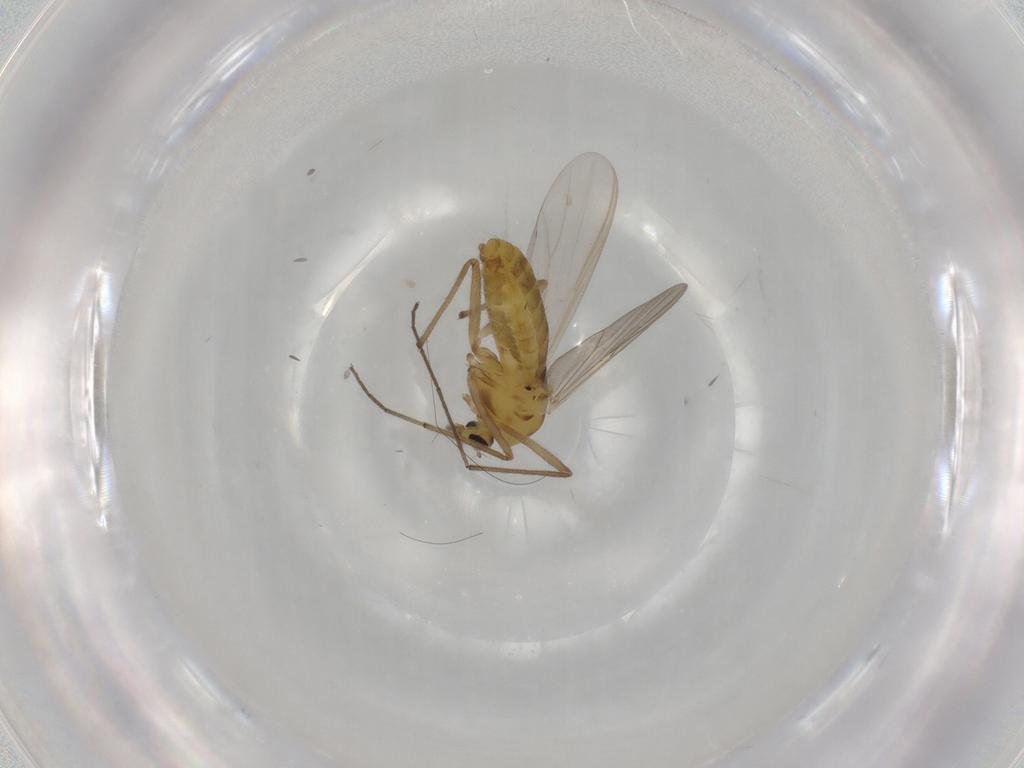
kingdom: Animalia
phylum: Arthropoda
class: Insecta
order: Diptera
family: Chironomidae
